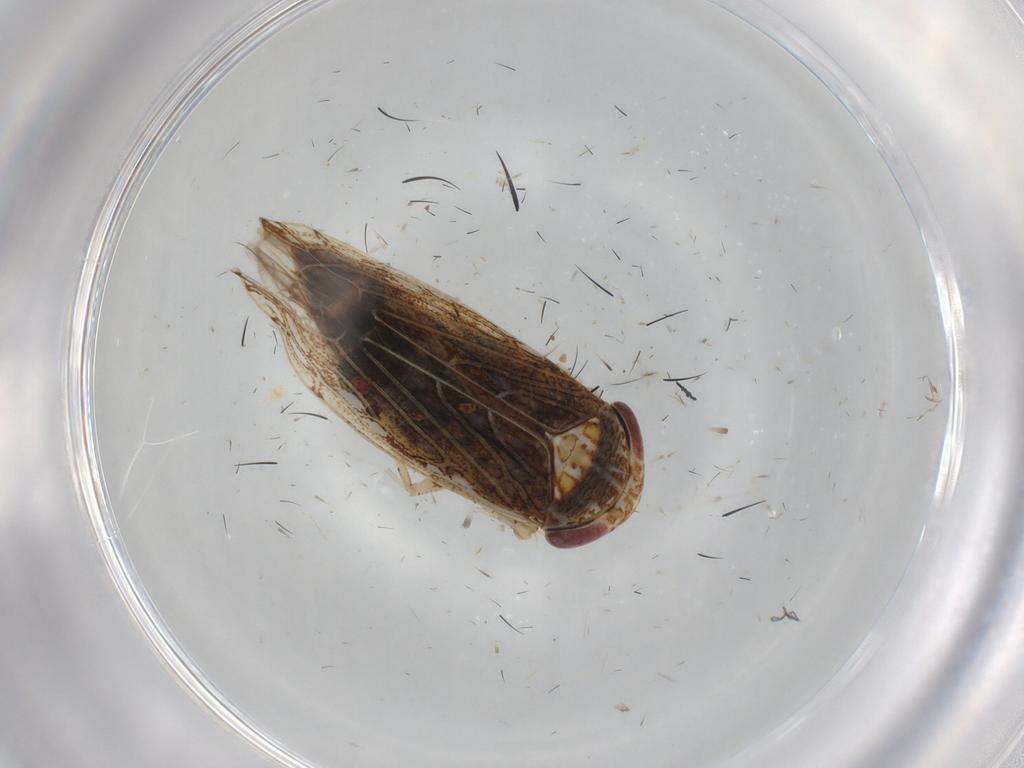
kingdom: Animalia
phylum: Arthropoda
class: Insecta
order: Hemiptera
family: Cicadellidae
